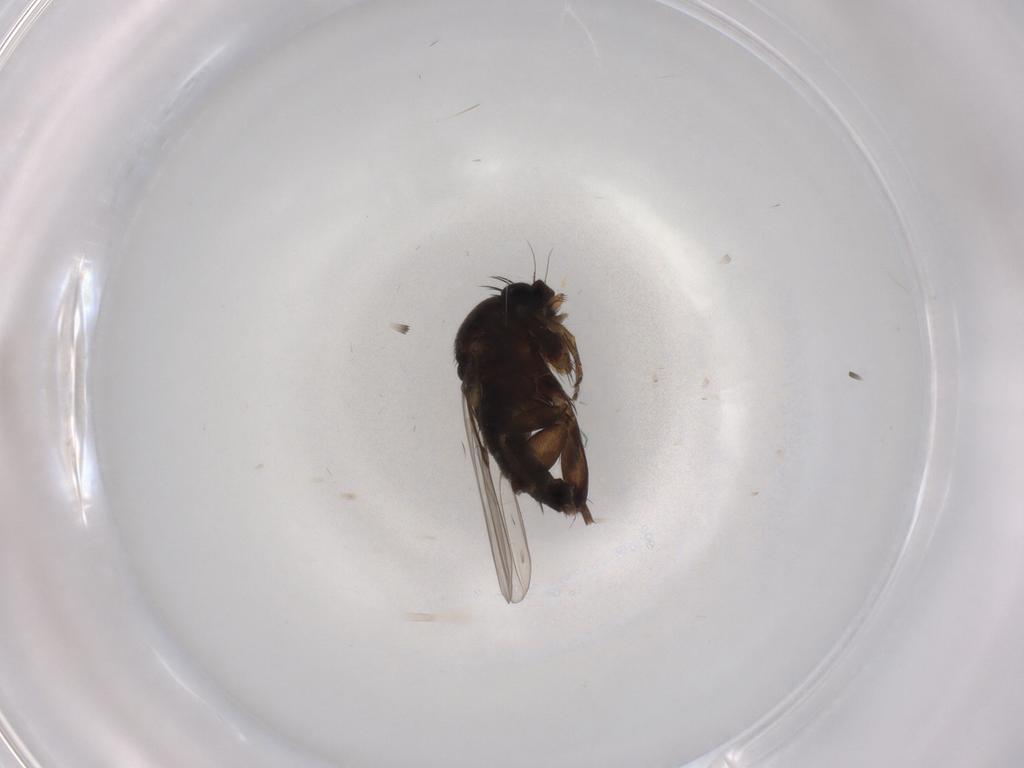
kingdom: Animalia
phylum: Arthropoda
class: Insecta
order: Diptera
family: Phoridae
